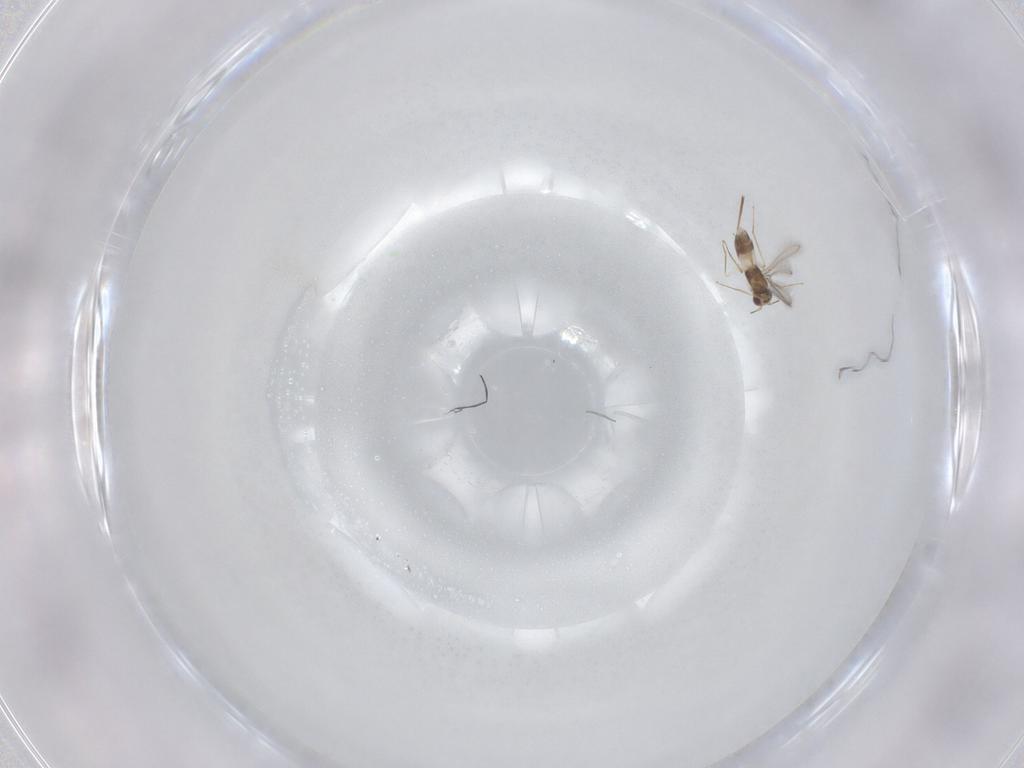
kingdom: Animalia
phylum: Arthropoda
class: Insecta
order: Hymenoptera
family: Mymaridae
